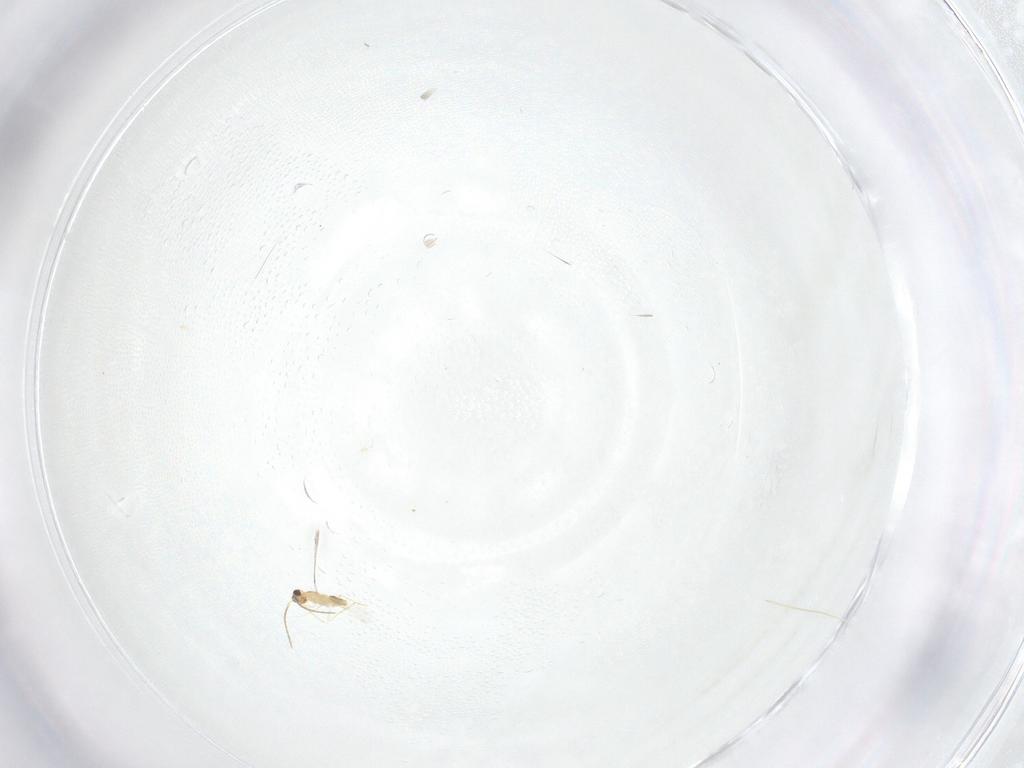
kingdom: Animalia
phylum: Arthropoda
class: Insecta
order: Hymenoptera
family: Mymaridae
